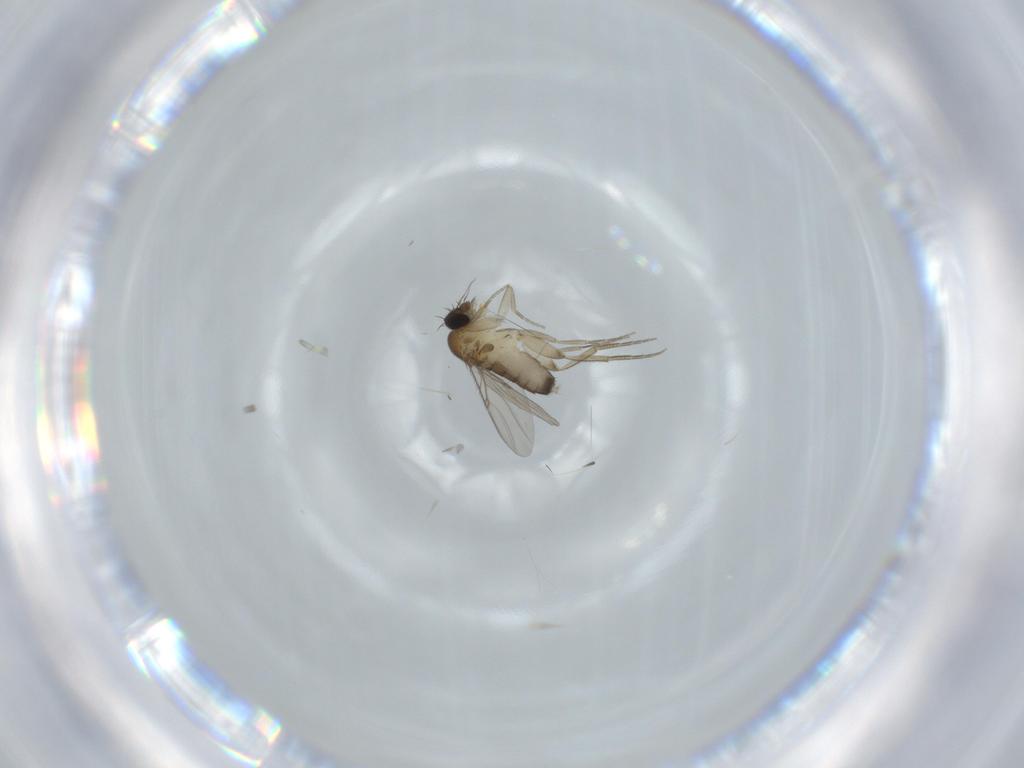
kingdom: Animalia
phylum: Arthropoda
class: Insecta
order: Diptera
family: Phoridae
